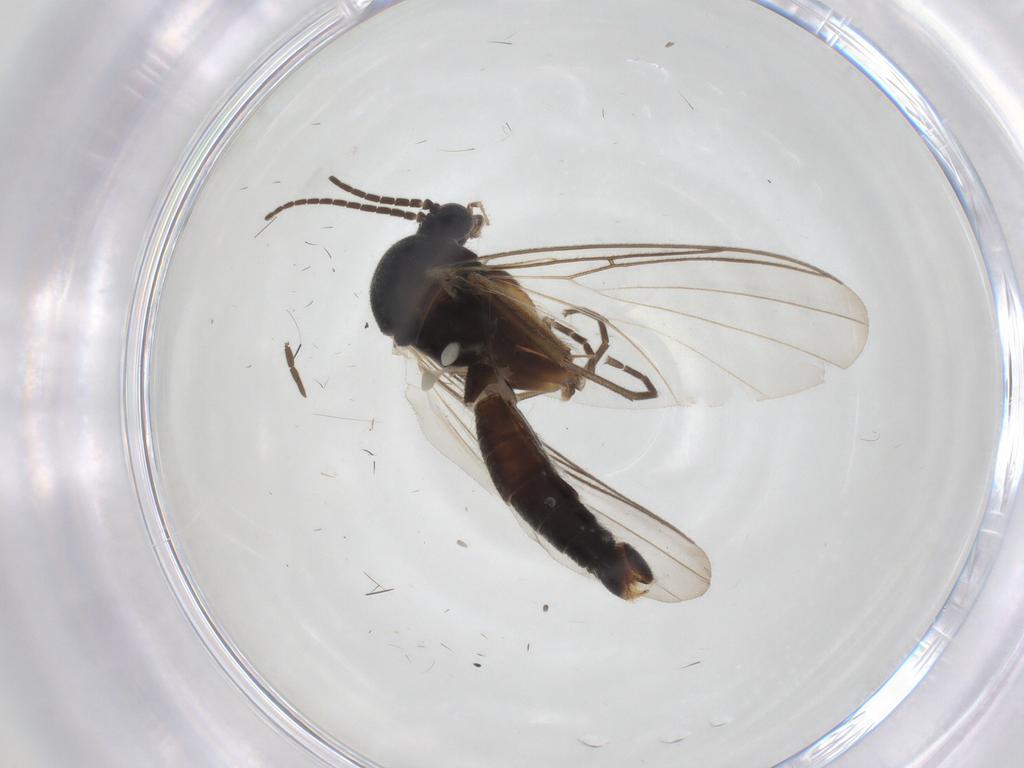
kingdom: Animalia
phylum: Arthropoda
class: Insecta
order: Diptera
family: Mycetophilidae
